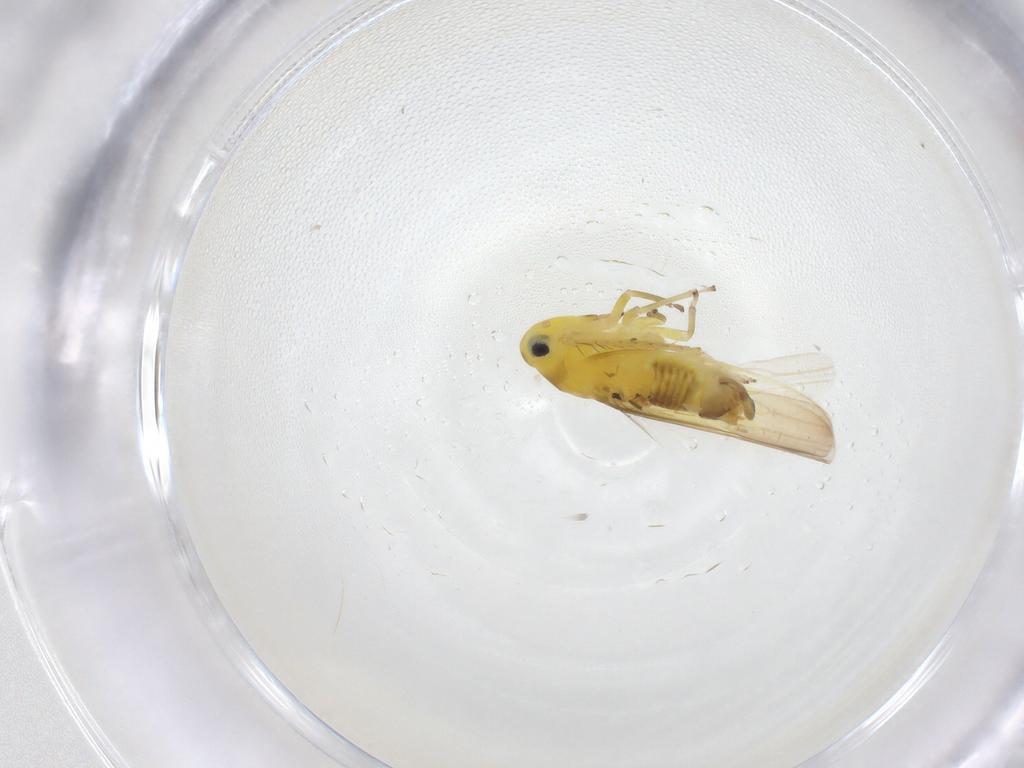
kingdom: Animalia
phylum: Arthropoda
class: Insecta
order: Hemiptera
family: Cicadellidae
